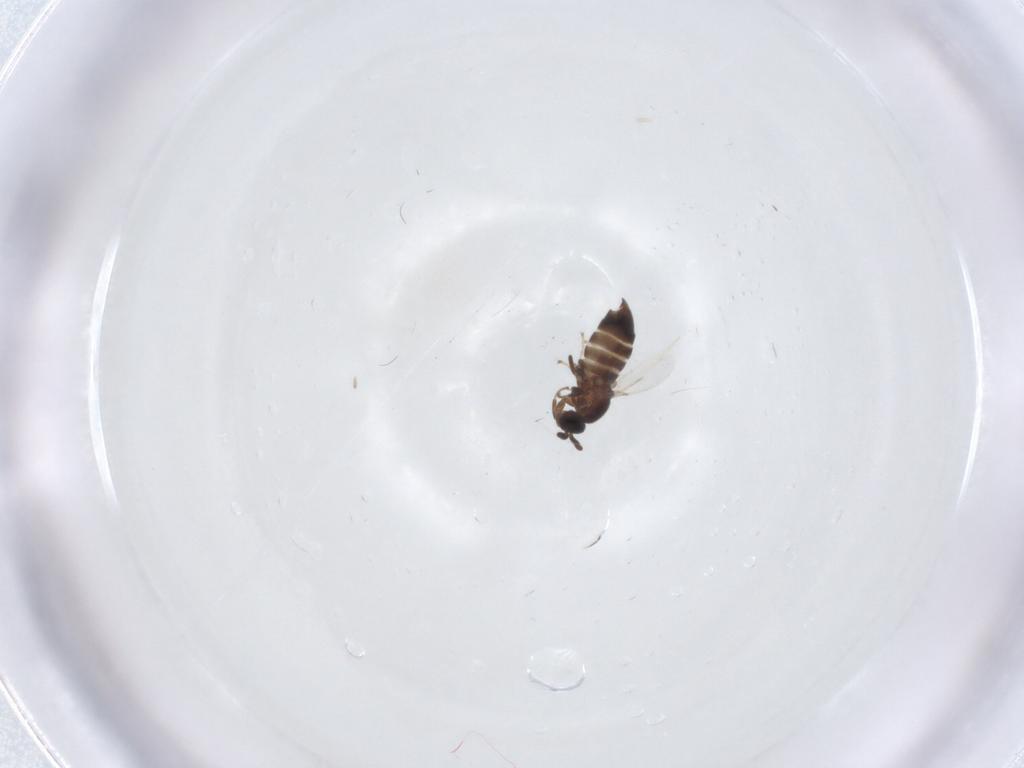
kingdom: Animalia
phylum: Arthropoda
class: Insecta
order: Diptera
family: Scatopsidae
